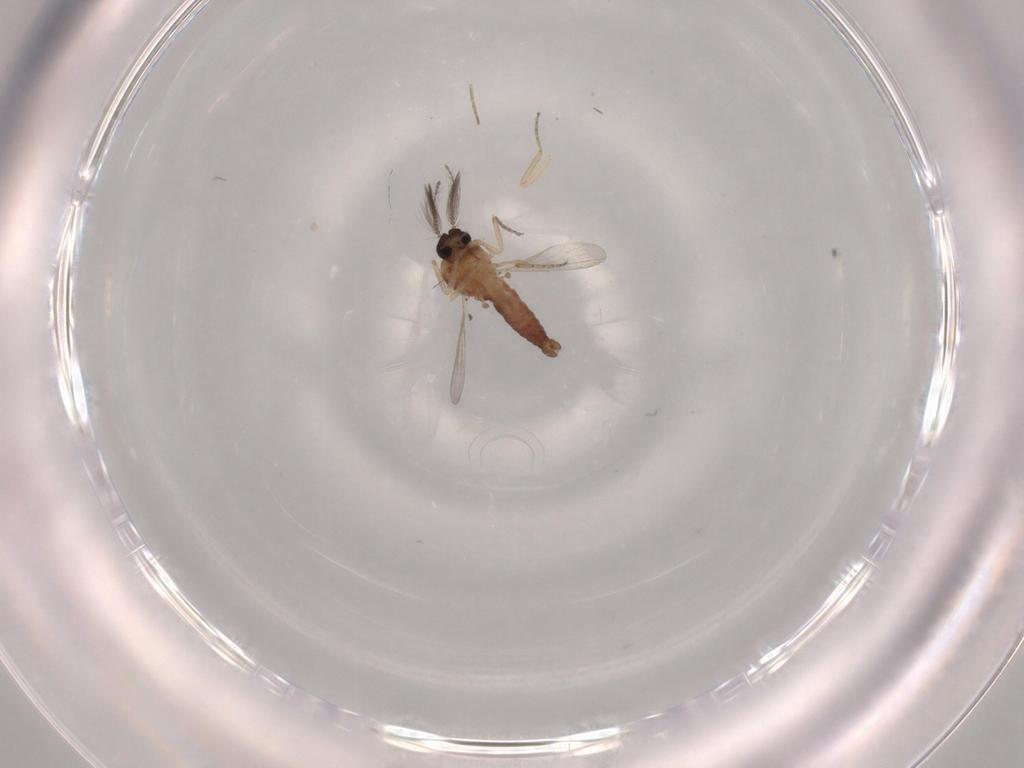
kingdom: Animalia
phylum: Arthropoda
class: Insecta
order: Diptera
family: Ceratopogonidae
